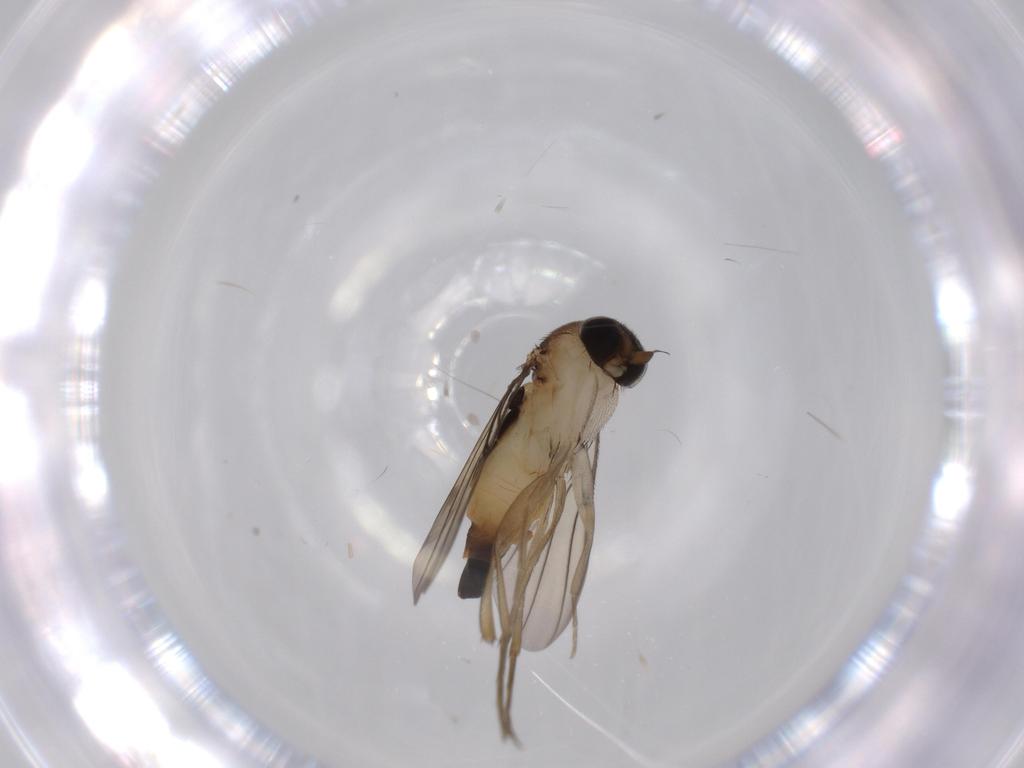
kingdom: Animalia
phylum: Arthropoda
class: Insecta
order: Diptera
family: Phoridae
